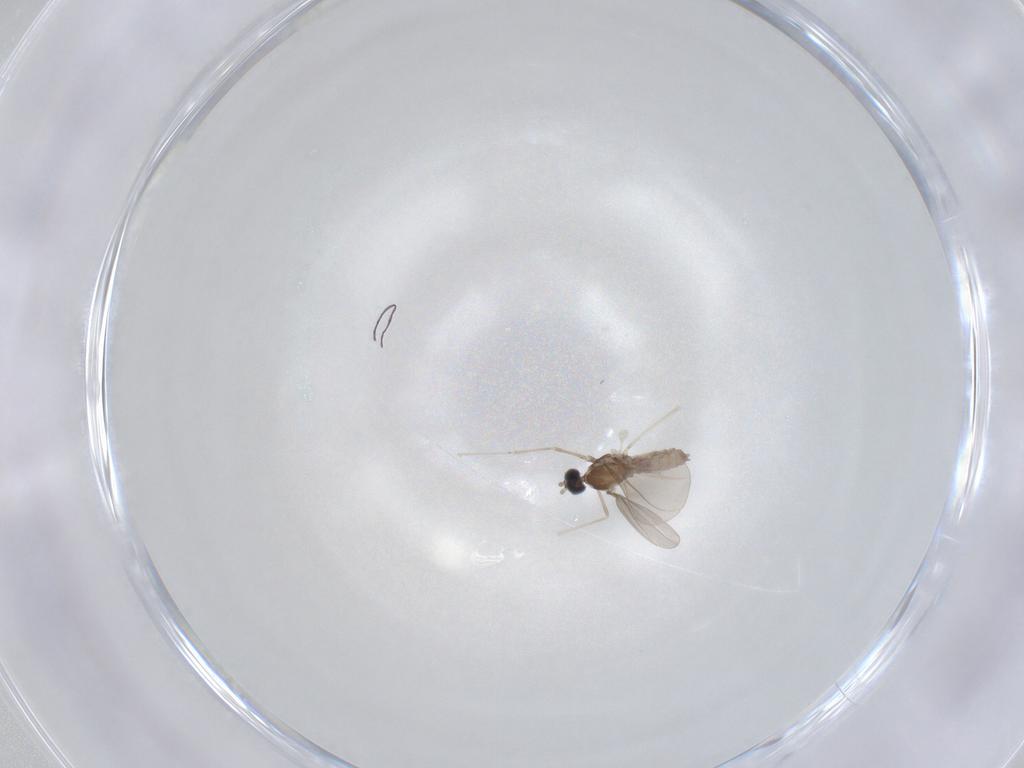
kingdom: Animalia
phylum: Arthropoda
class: Insecta
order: Diptera
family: Cecidomyiidae
